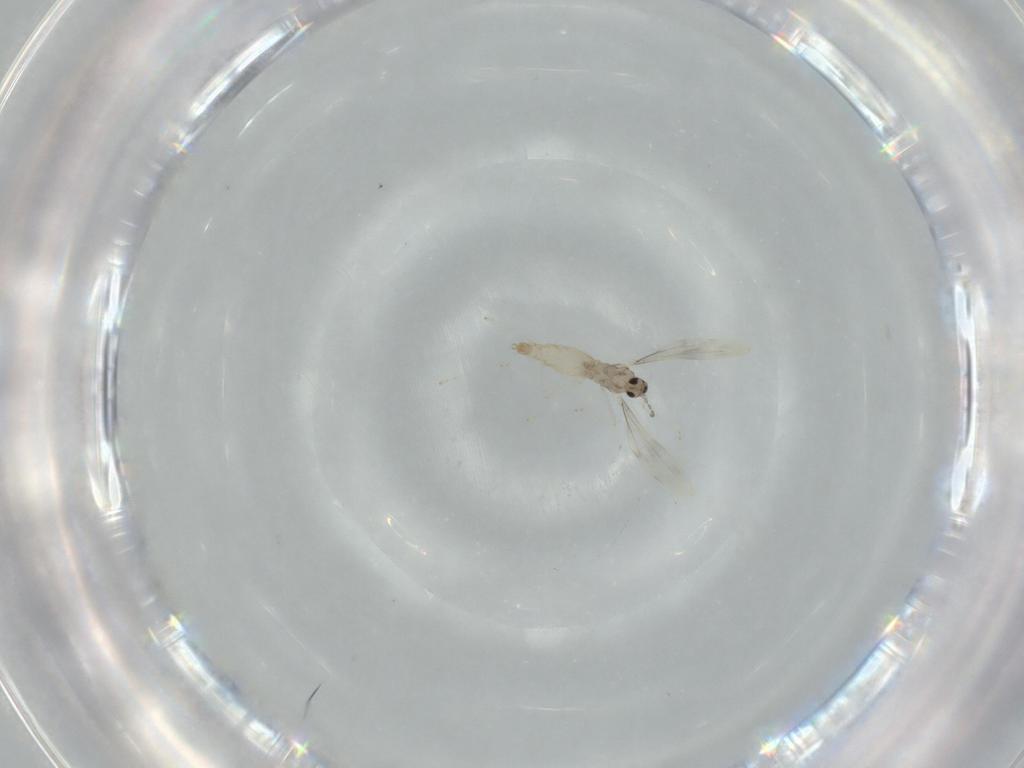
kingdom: Animalia
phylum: Arthropoda
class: Insecta
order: Diptera
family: Cecidomyiidae
